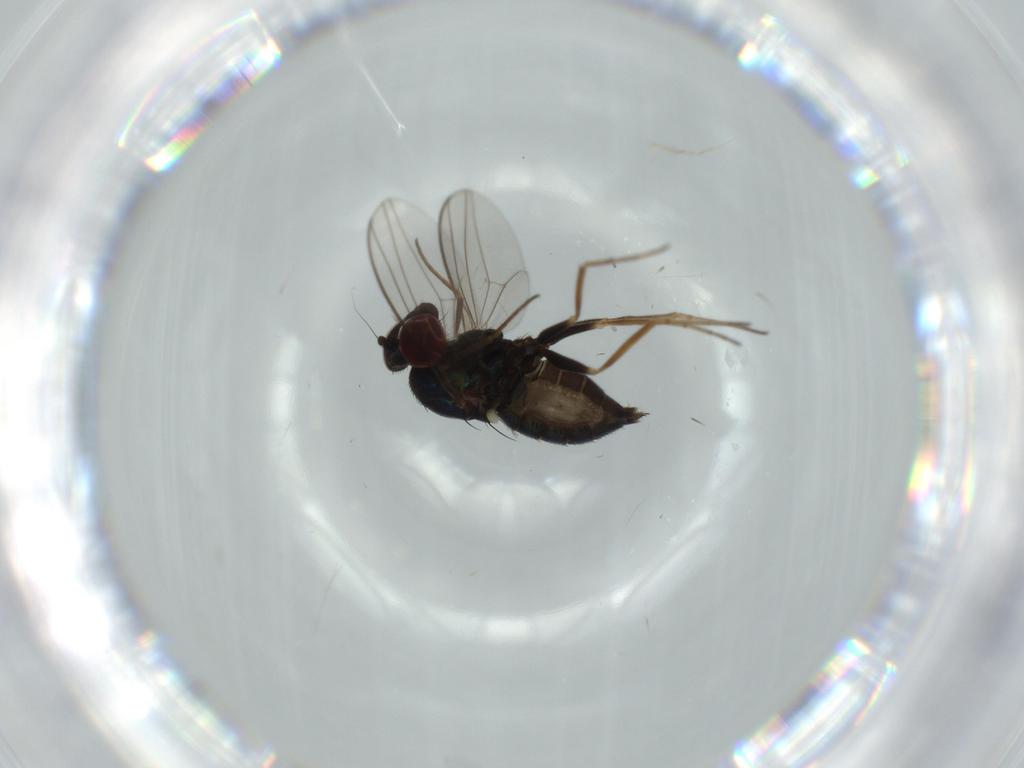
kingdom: Animalia
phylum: Arthropoda
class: Insecta
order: Diptera
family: Dolichopodidae
